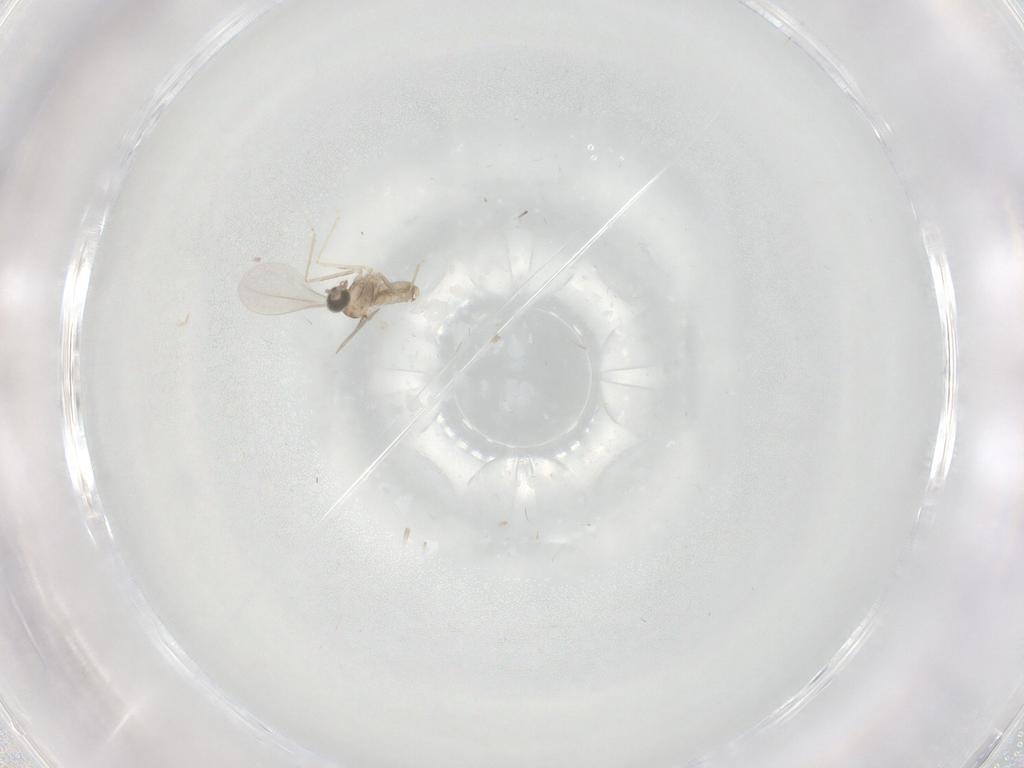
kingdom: Animalia
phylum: Arthropoda
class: Insecta
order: Diptera
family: Cecidomyiidae
